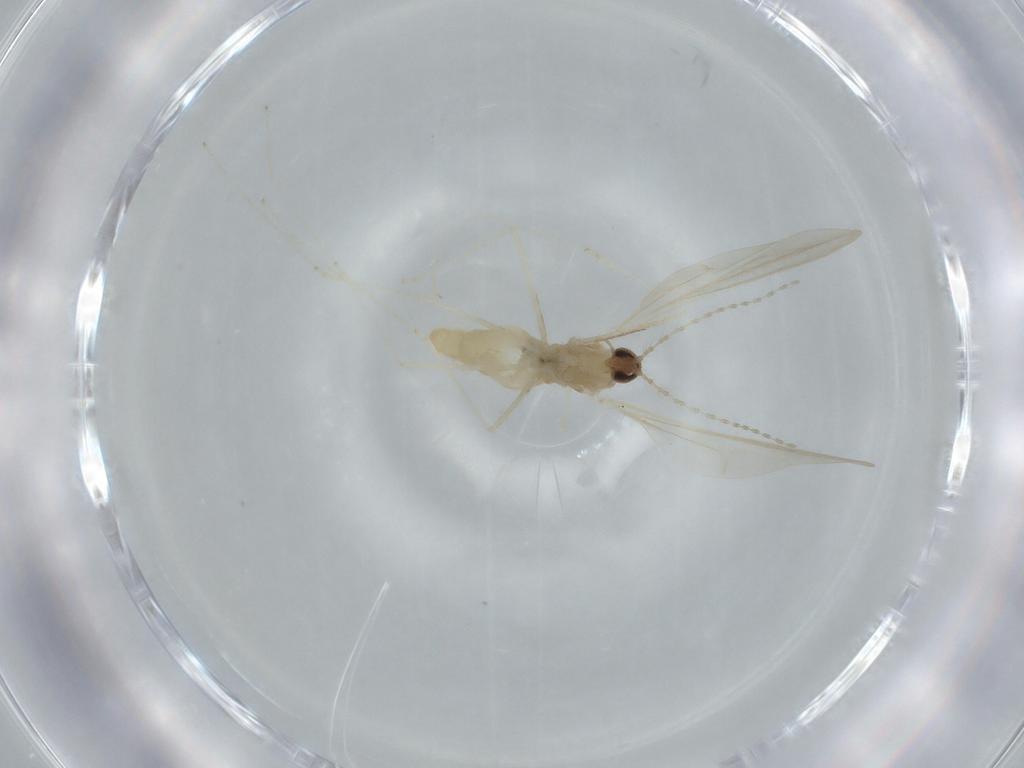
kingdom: Animalia
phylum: Arthropoda
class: Insecta
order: Diptera
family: Cecidomyiidae
